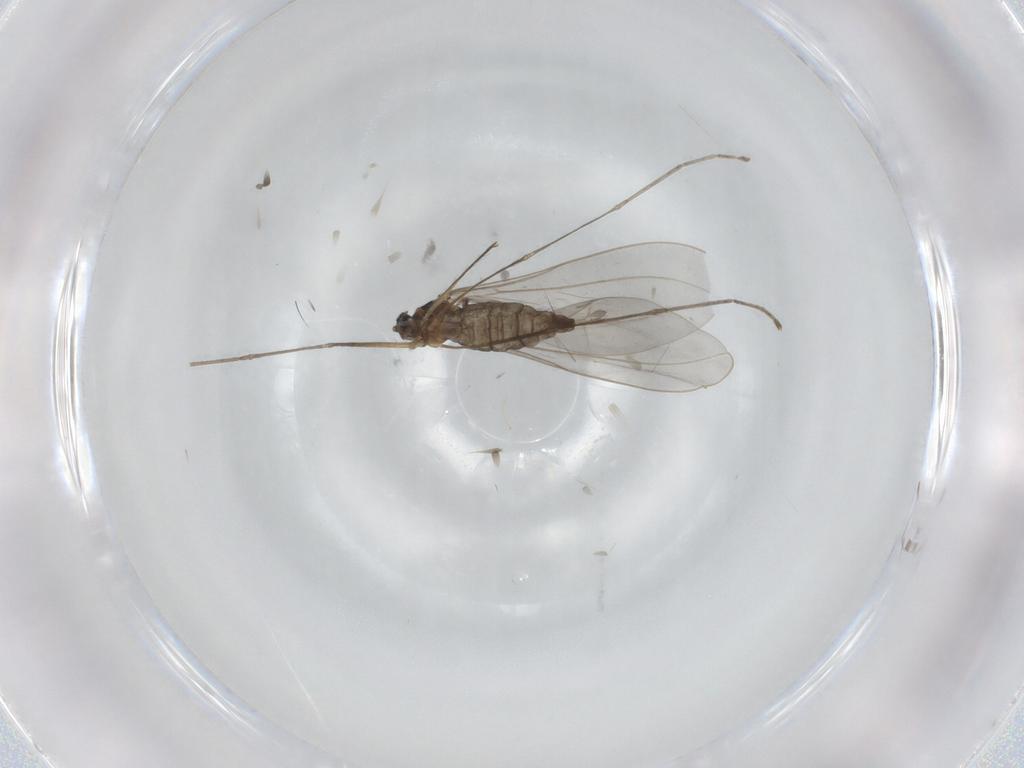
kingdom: Animalia
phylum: Arthropoda
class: Insecta
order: Diptera
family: Cecidomyiidae
